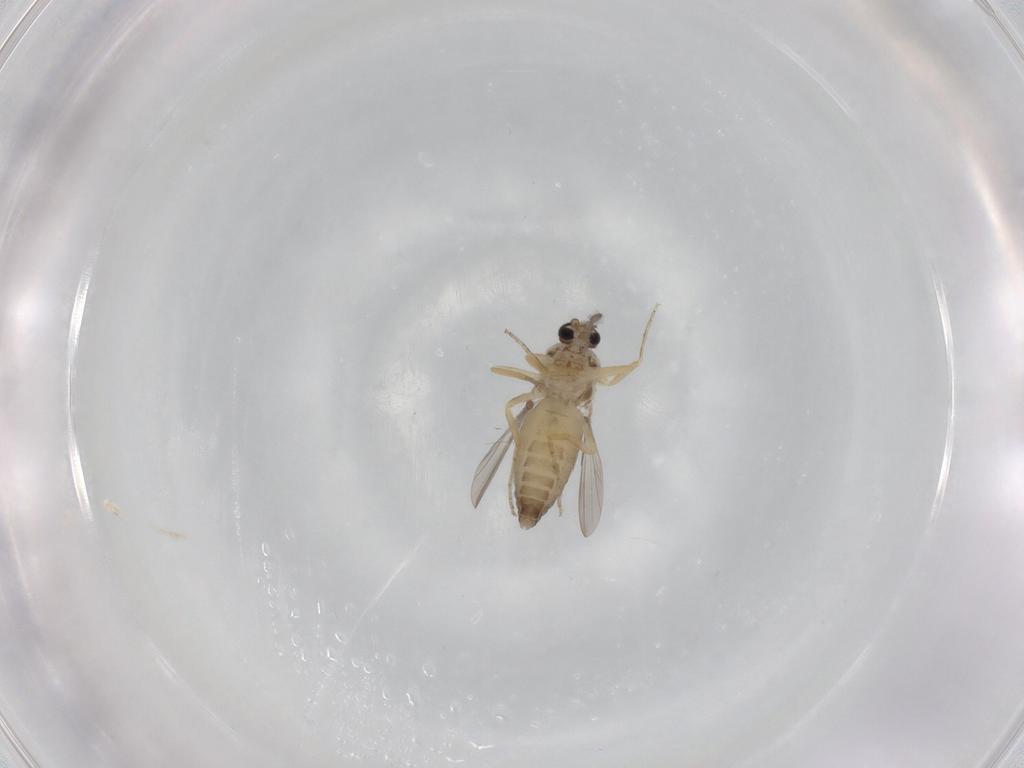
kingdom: Animalia
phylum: Arthropoda
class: Insecta
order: Diptera
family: Ceratopogonidae
